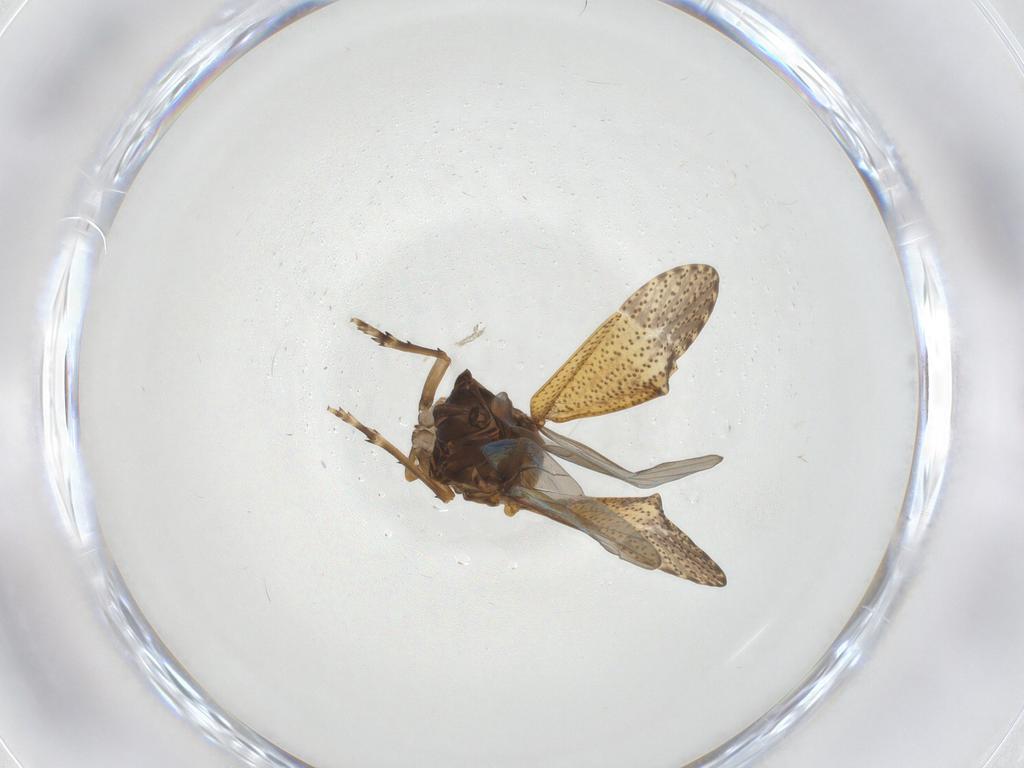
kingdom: Animalia
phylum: Arthropoda
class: Insecta
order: Hemiptera
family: Delphacidae
